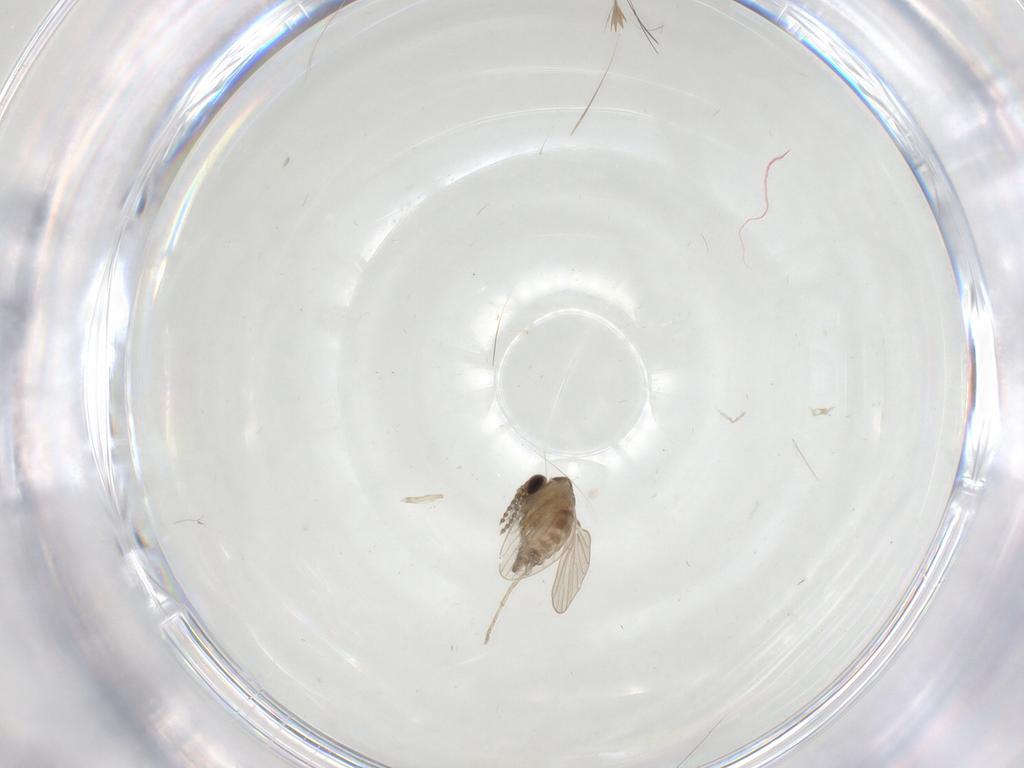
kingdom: Animalia
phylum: Arthropoda
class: Insecta
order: Diptera
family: Psychodidae
